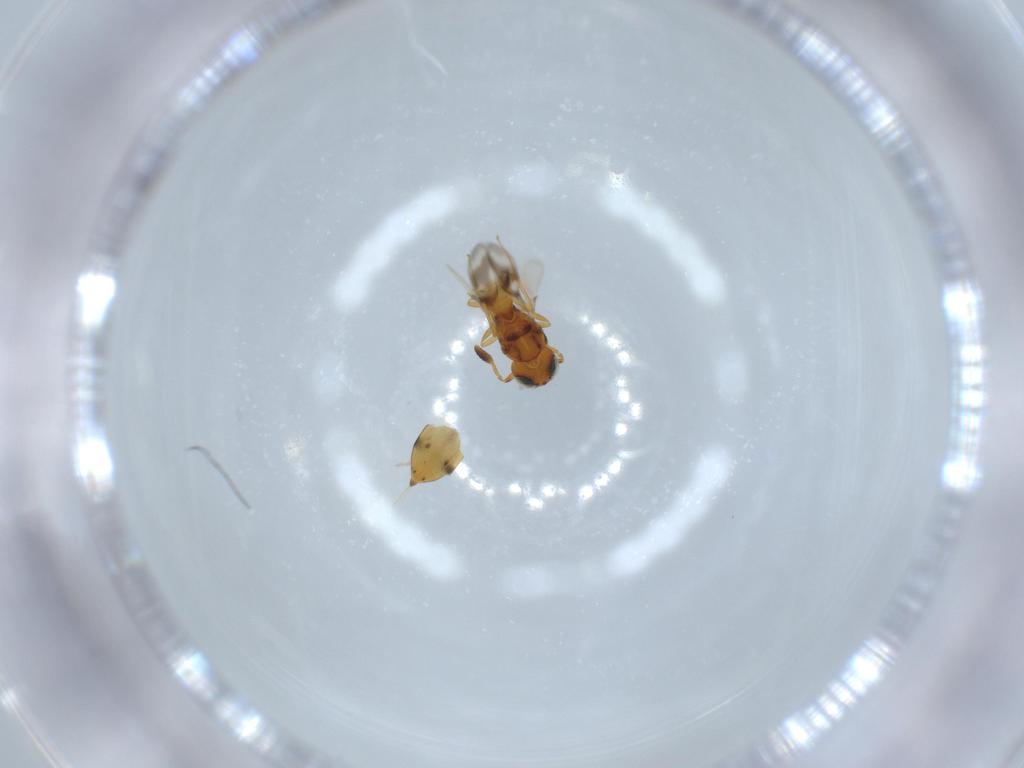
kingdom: Animalia
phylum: Arthropoda
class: Insecta
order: Hymenoptera
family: Scelionidae
